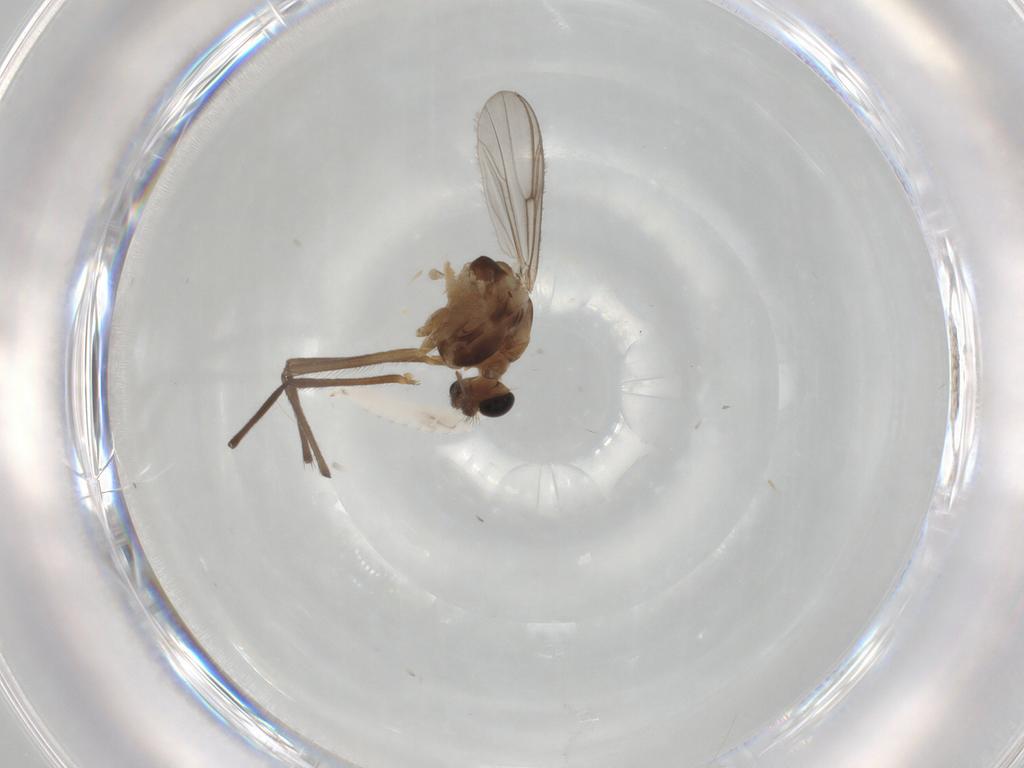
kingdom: Animalia
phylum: Arthropoda
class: Insecta
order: Diptera
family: Phoridae
